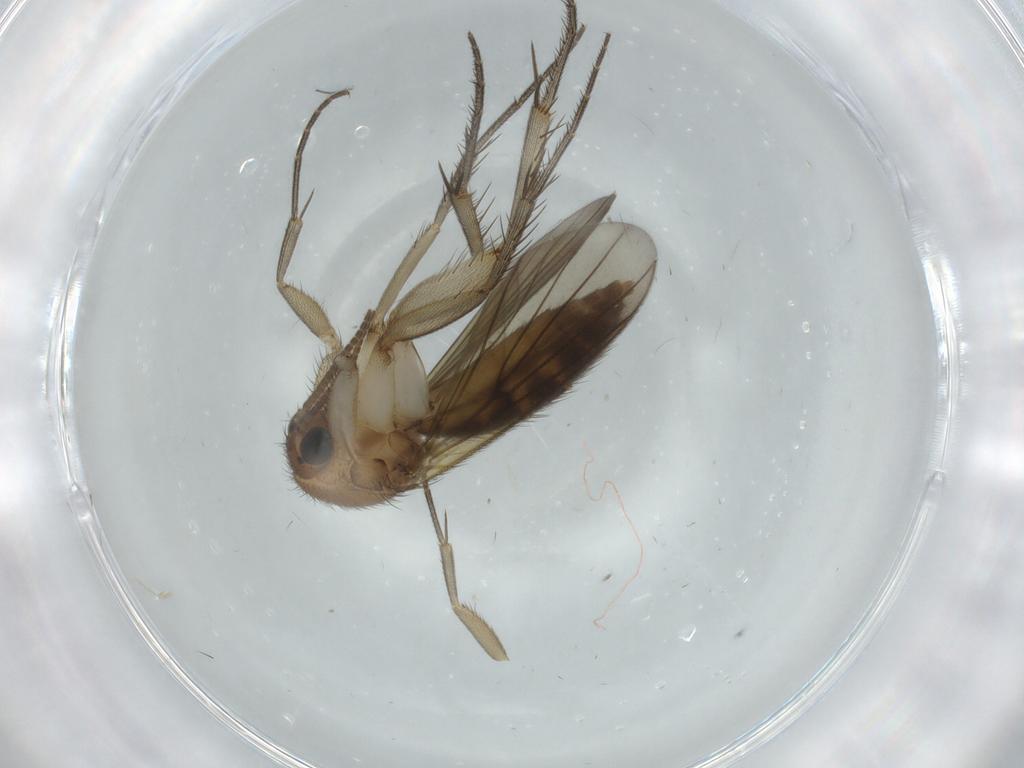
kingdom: Animalia
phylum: Arthropoda
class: Insecta
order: Diptera
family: Mycetophilidae
